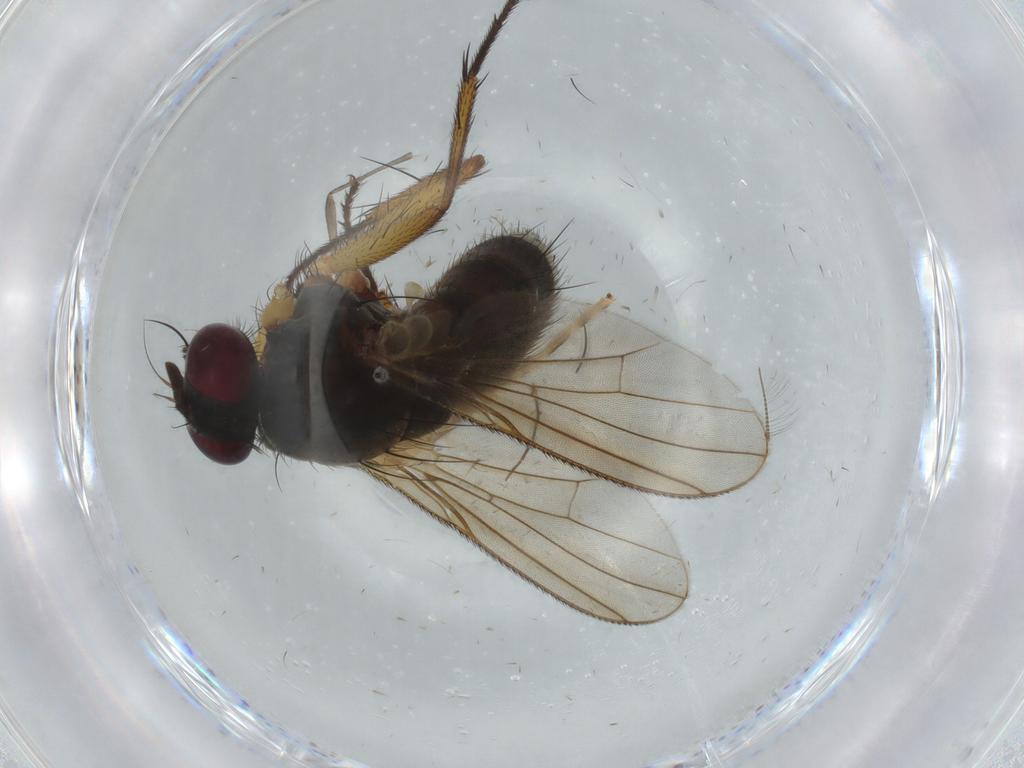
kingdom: Animalia
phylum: Arthropoda
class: Insecta
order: Diptera
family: Muscidae
